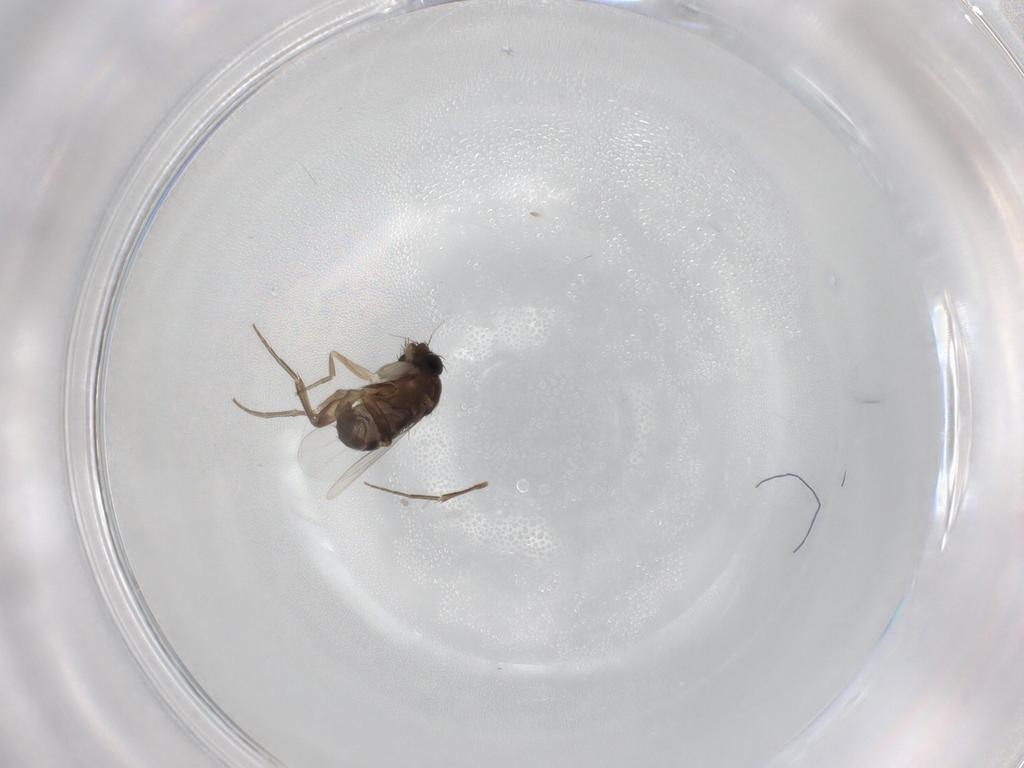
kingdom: Animalia
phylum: Arthropoda
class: Insecta
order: Diptera
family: Phoridae
